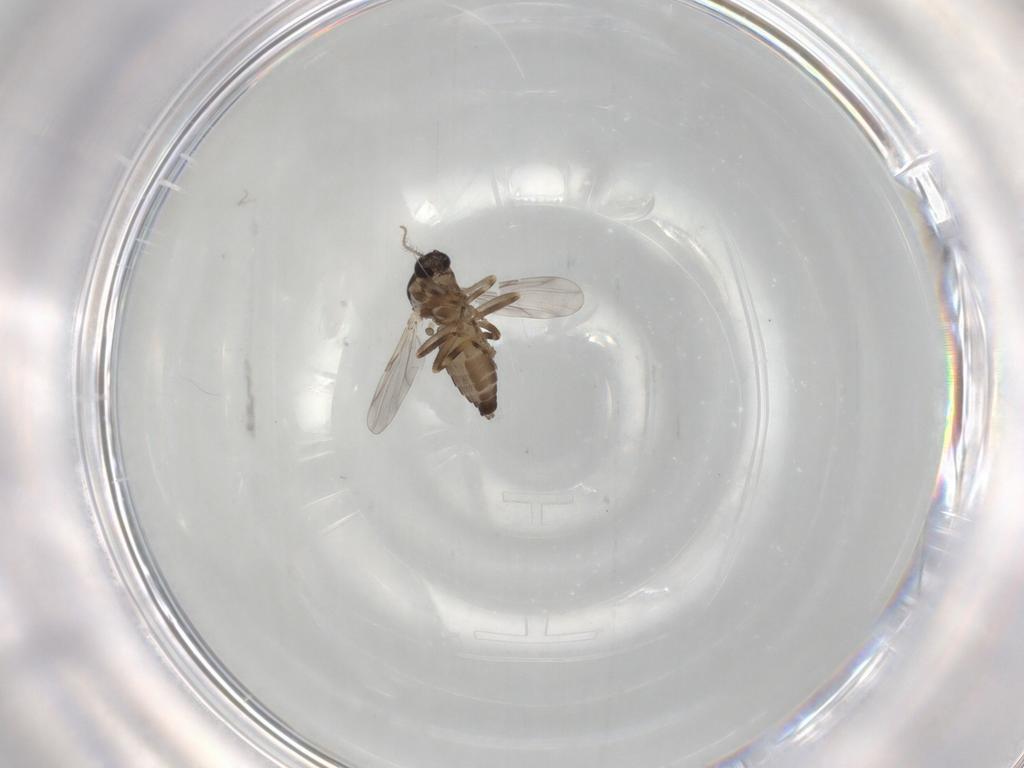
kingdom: Animalia
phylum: Arthropoda
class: Insecta
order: Diptera
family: Ceratopogonidae
